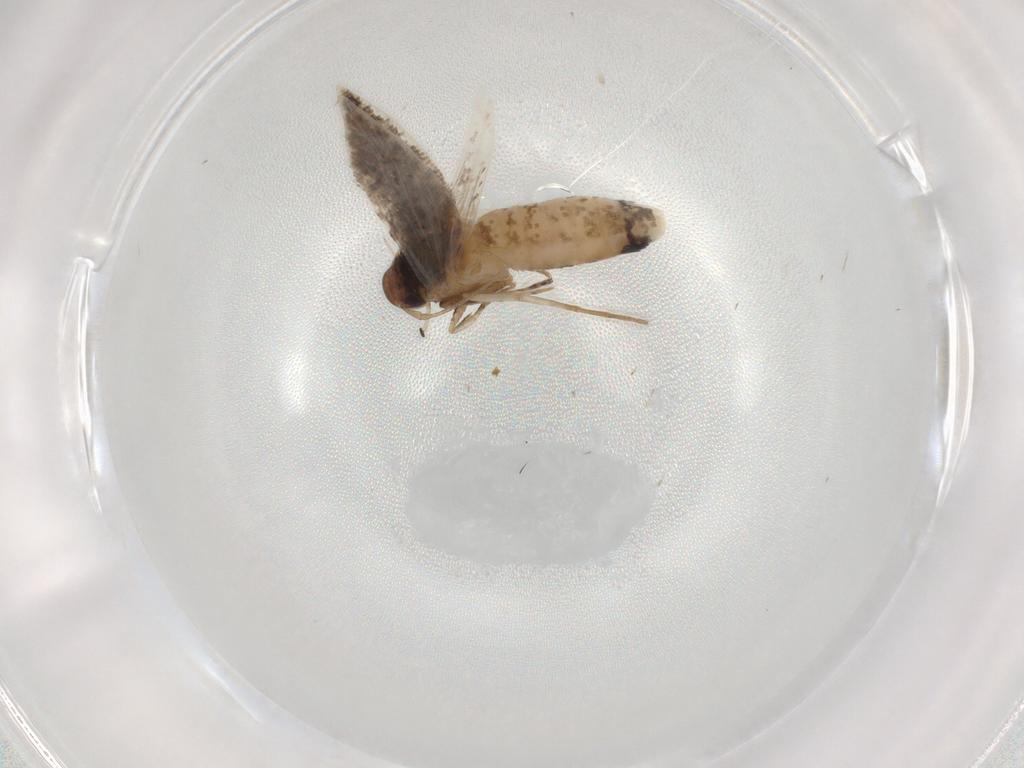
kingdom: Animalia
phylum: Arthropoda
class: Insecta
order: Lepidoptera
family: Cosmopterigidae
